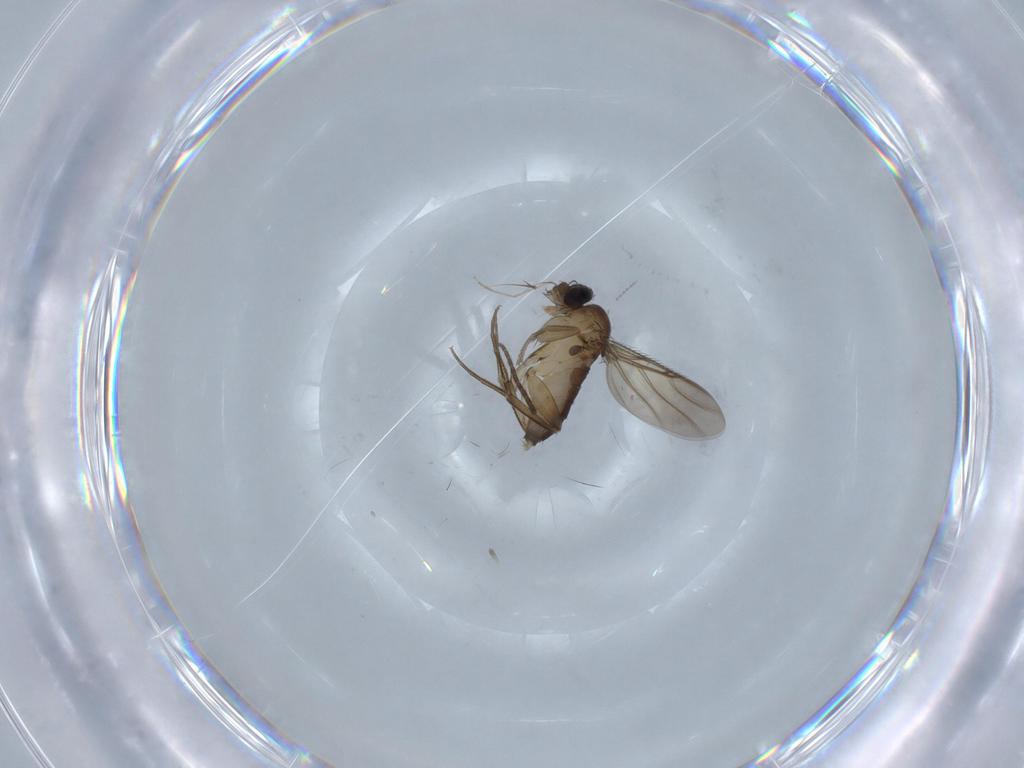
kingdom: Animalia
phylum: Arthropoda
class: Insecta
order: Diptera
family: Phoridae
